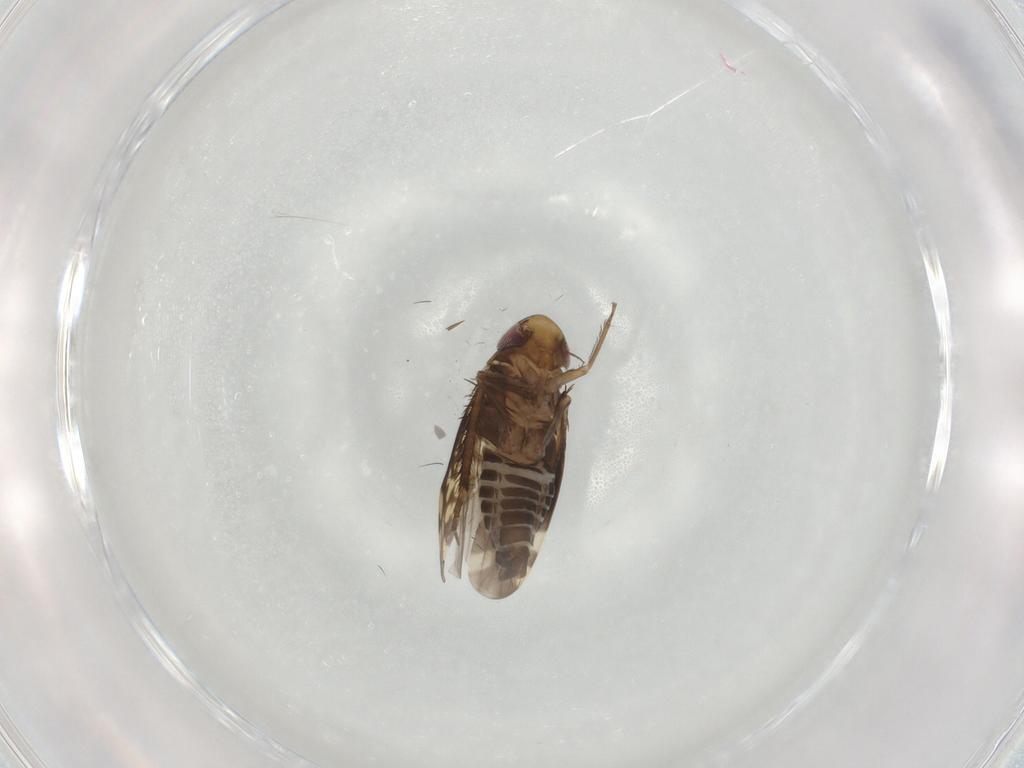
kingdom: Animalia
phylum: Arthropoda
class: Insecta
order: Hemiptera
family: Cicadellidae
